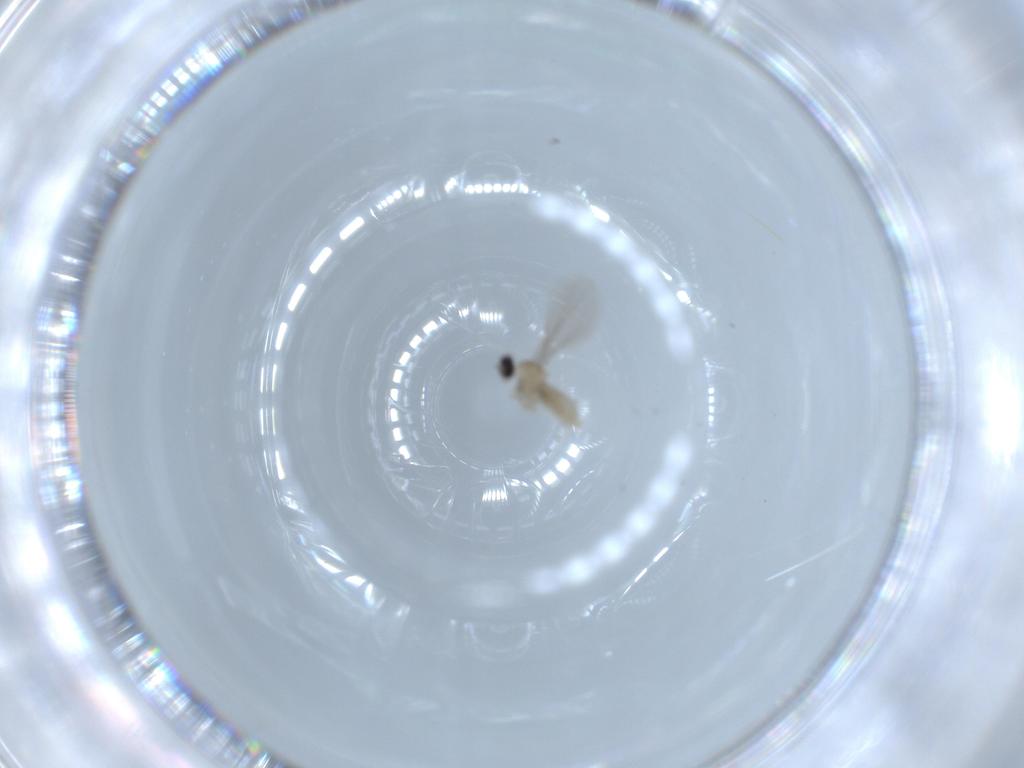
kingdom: Animalia
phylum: Arthropoda
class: Insecta
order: Diptera
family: Cecidomyiidae
